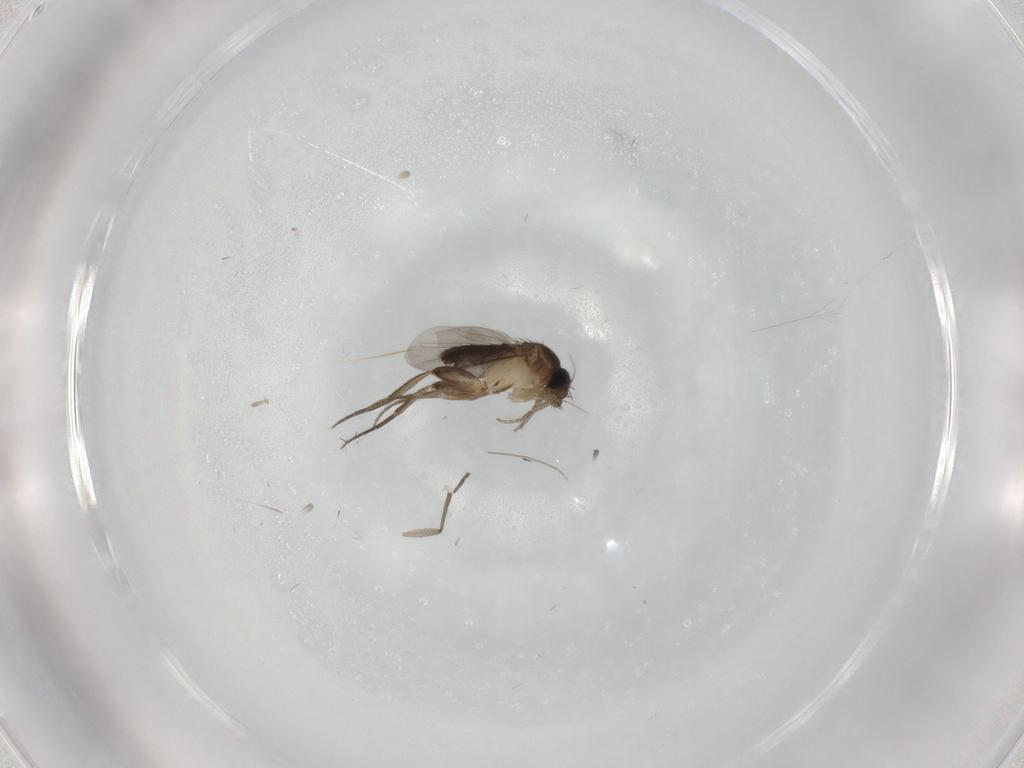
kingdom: Animalia
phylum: Arthropoda
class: Insecta
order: Diptera
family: Phoridae
